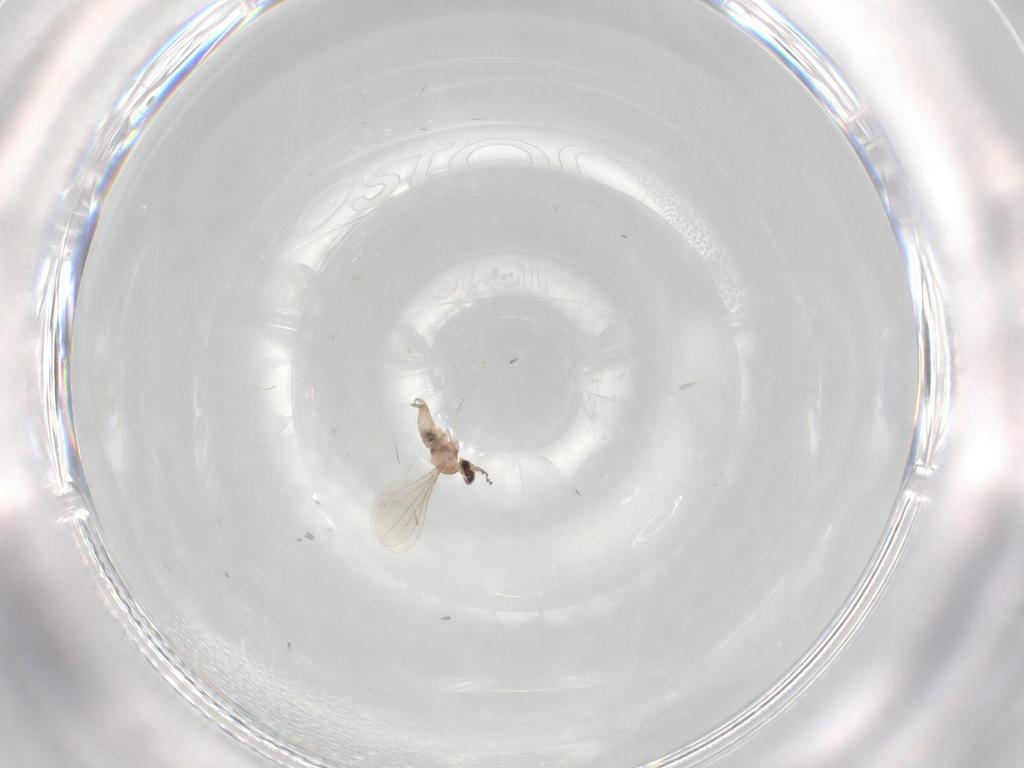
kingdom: Animalia
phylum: Arthropoda
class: Insecta
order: Diptera
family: Cecidomyiidae
